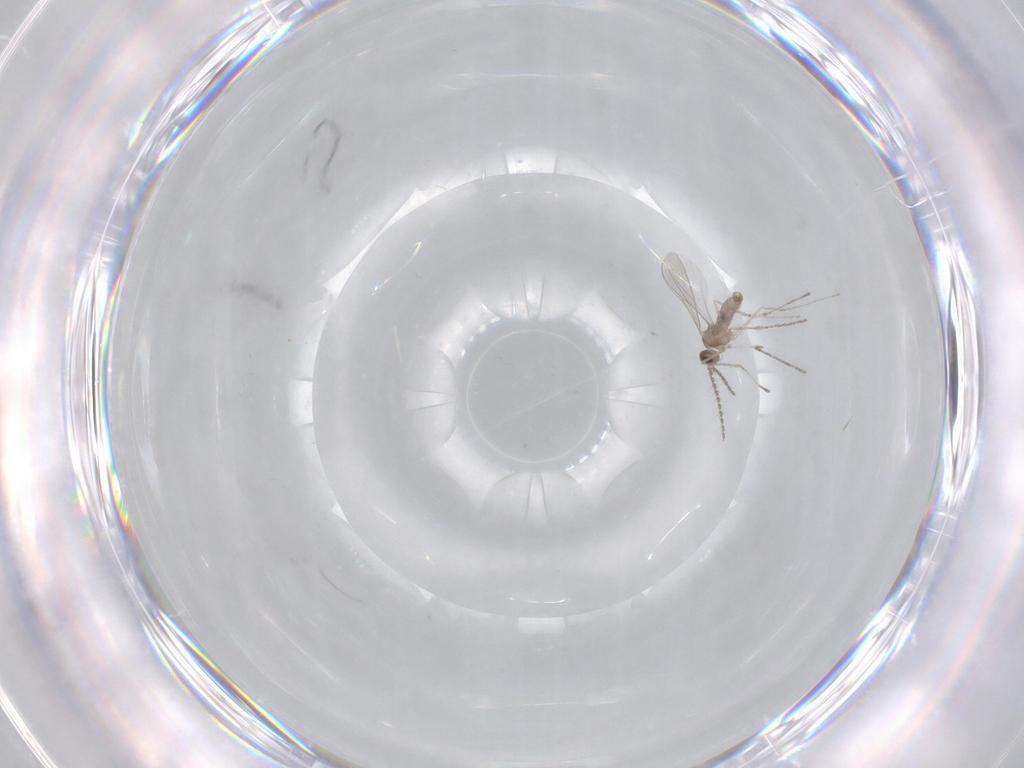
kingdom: Animalia
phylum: Arthropoda
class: Insecta
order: Diptera
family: Cecidomyiidae
